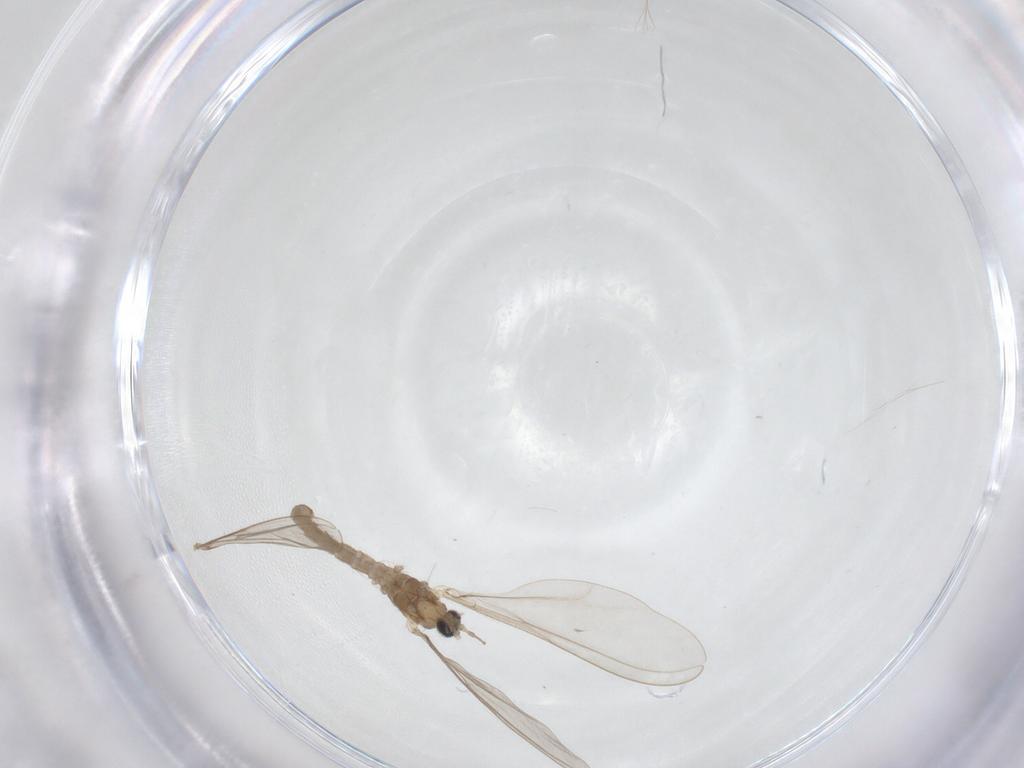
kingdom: Animalia
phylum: Arthropoda
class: Insecta
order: Diptera
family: Cecidomyiidae
